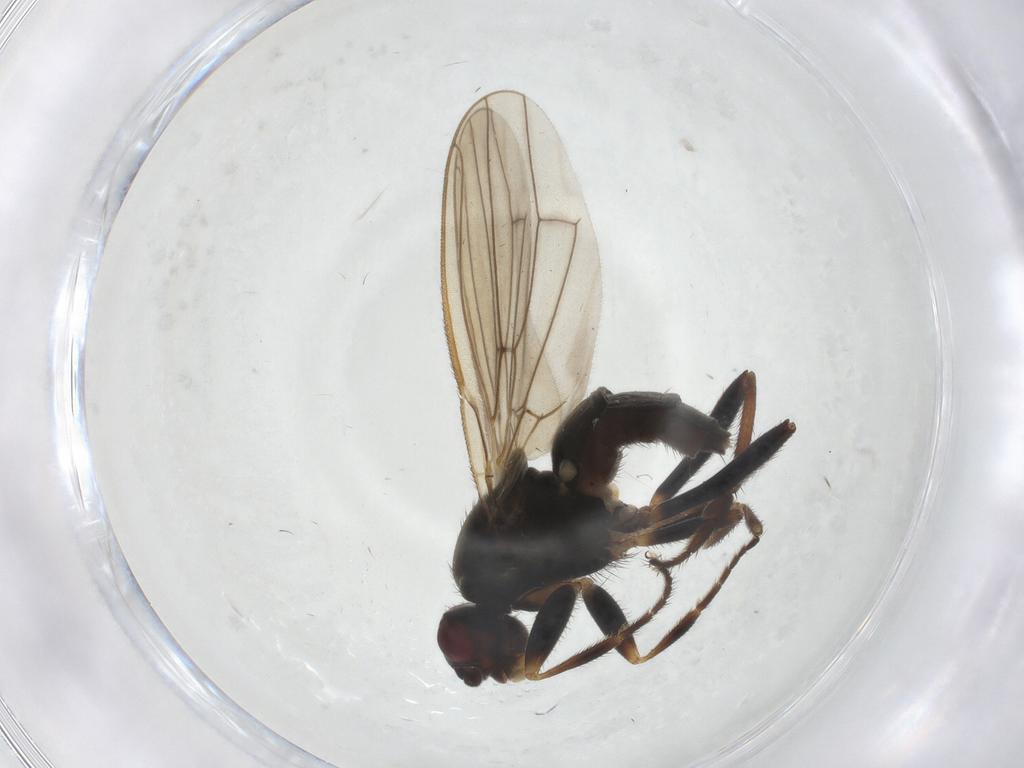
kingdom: Animalia
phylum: Arthropoda
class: Insecta
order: Diptera
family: Sphaeroceridae
